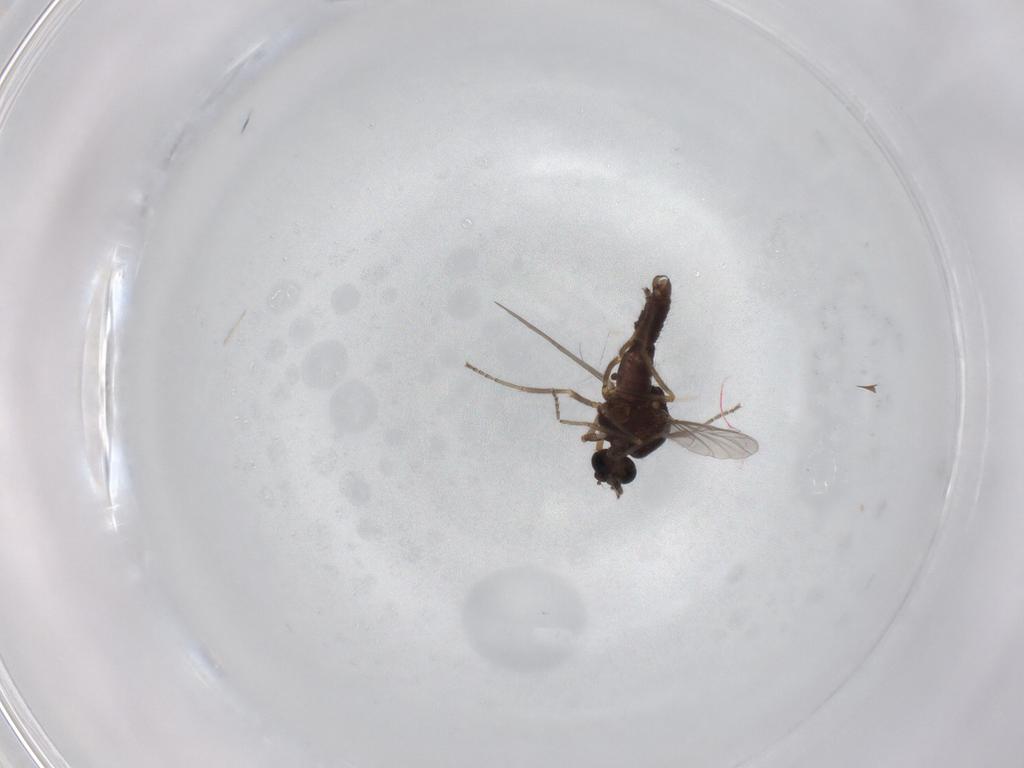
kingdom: Animalia
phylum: Arthropoda
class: Insecta
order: Diptera
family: Ceratopogonidae
